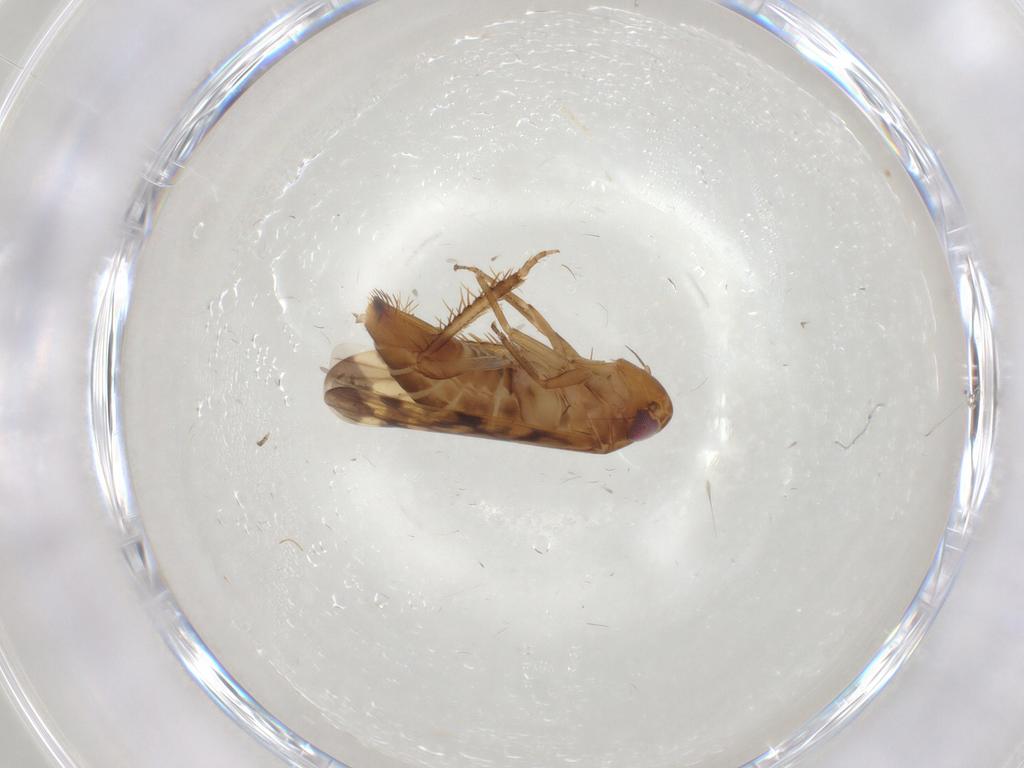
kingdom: Animalia
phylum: Arthropoda
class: Insecta
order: Hemiptera
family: Cicadellidae
